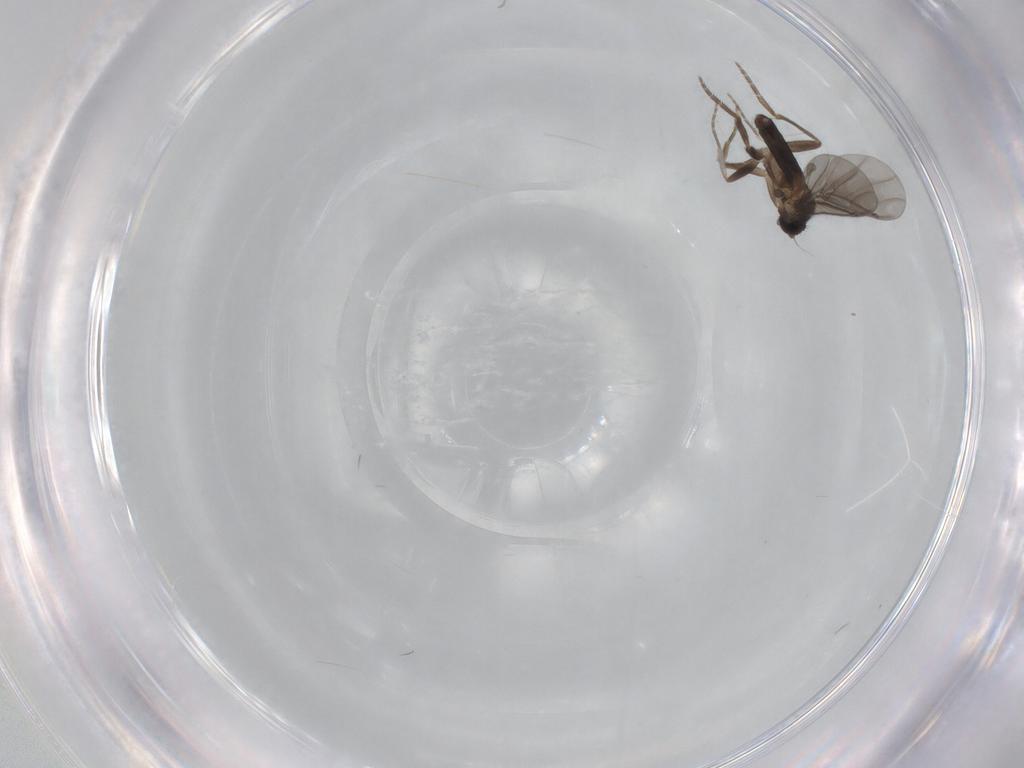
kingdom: Animalia
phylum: Arthropoda
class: Insecta
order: Diptera
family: Phoridae
